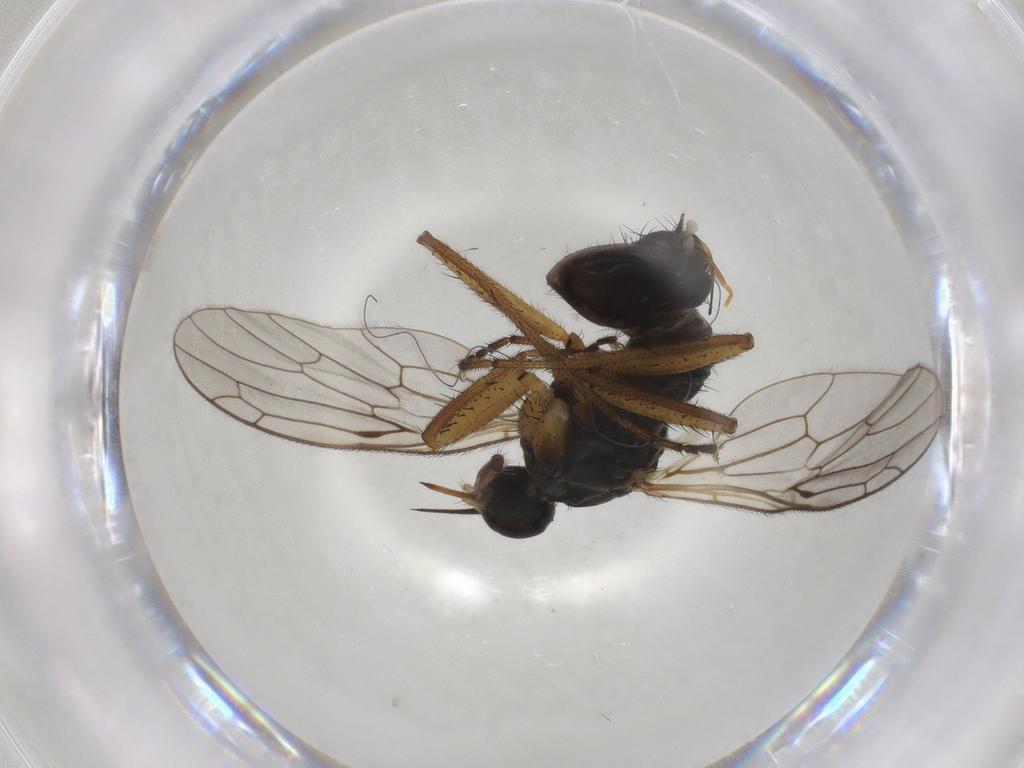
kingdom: Animalia
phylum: Arthropoda
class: Insecta
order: Diptera
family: Empididae
